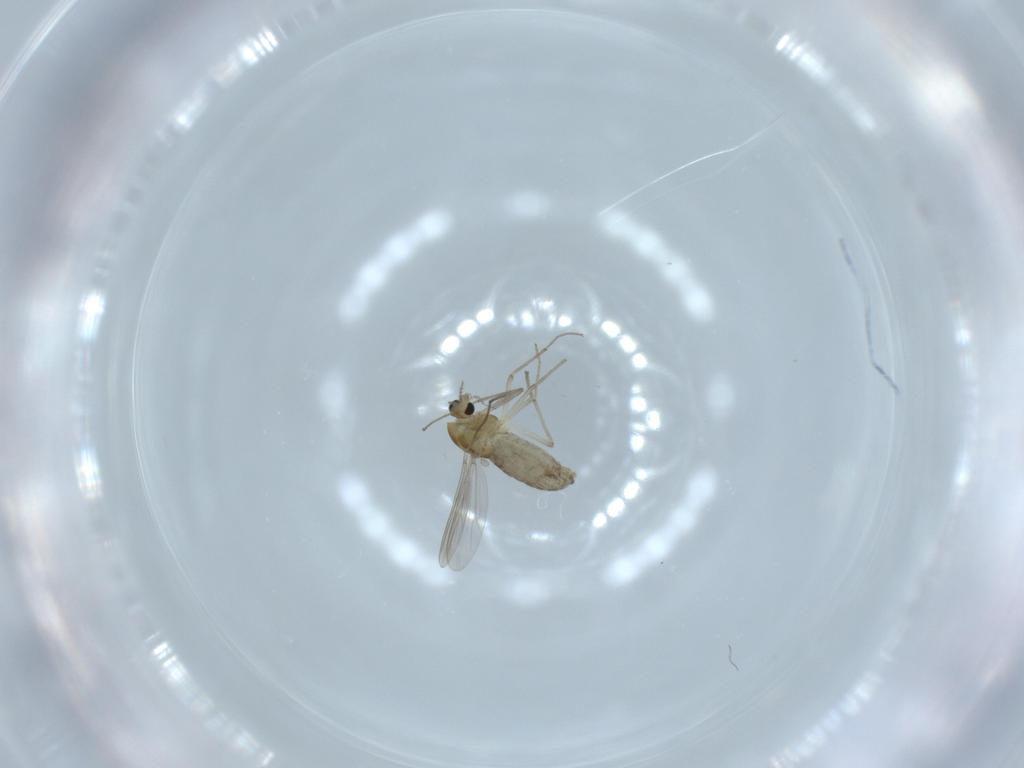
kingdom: Animalia
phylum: Arthropoda
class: Insecta
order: Diptera
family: Chironomidae
